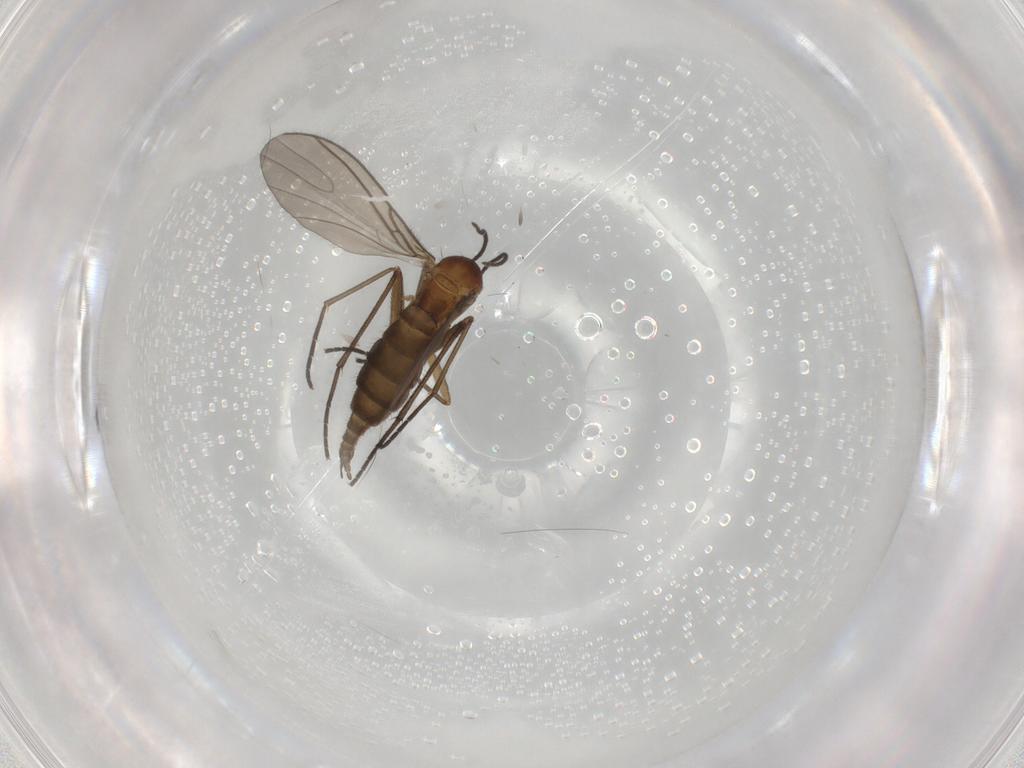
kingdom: Animalia
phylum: Arthropoda
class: Insecta
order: Diptera
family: Sciaridae
